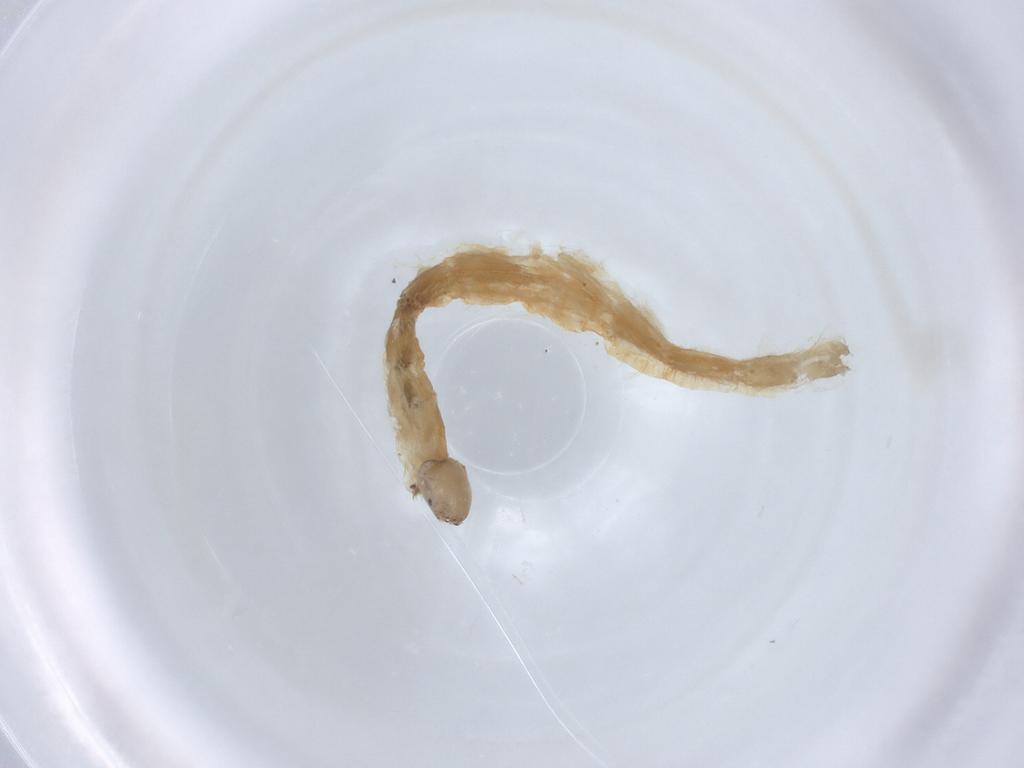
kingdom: Animalia
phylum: Arthropoda
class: Insecta
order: Diptera
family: Chironomidae
